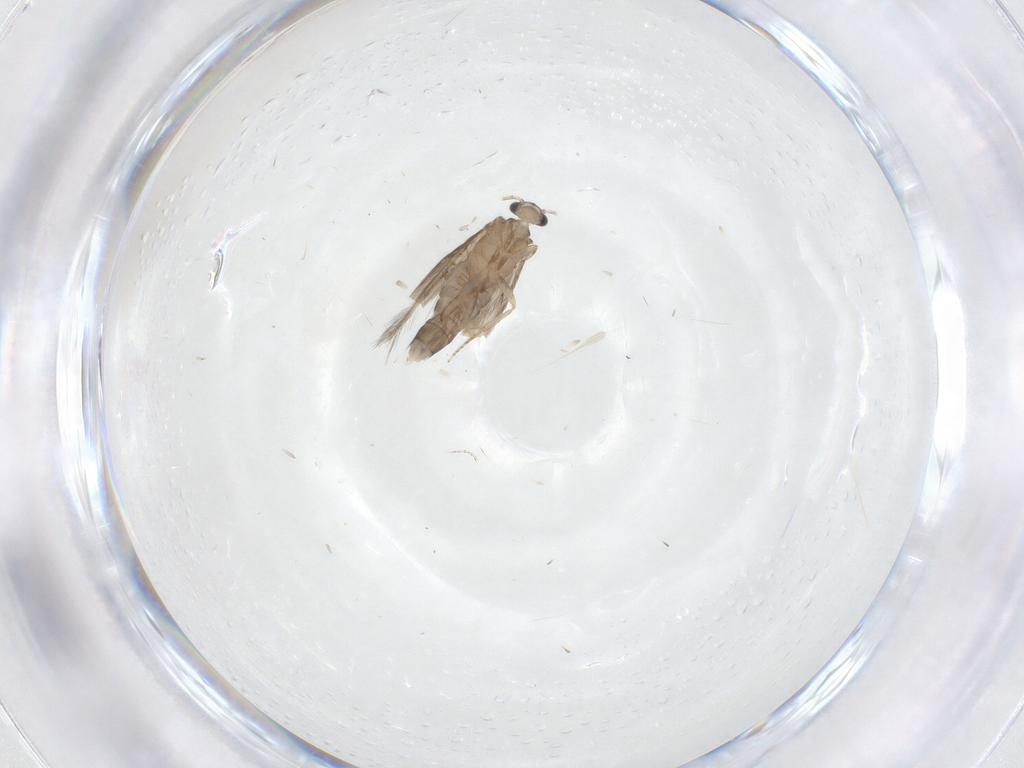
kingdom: Animalia
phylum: Arthropoda
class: Insecta
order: Trichoptera
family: Hydroptilidae
